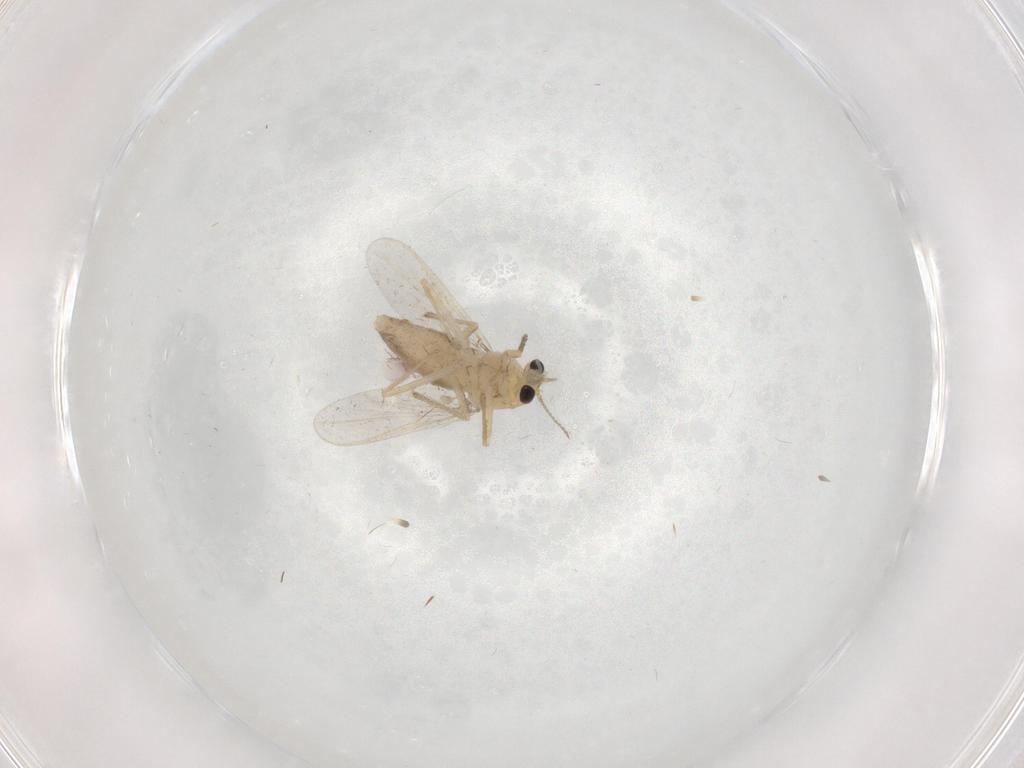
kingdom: Animalia
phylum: Arthropoda
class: Insecta
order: Diptera
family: Chironomidae
